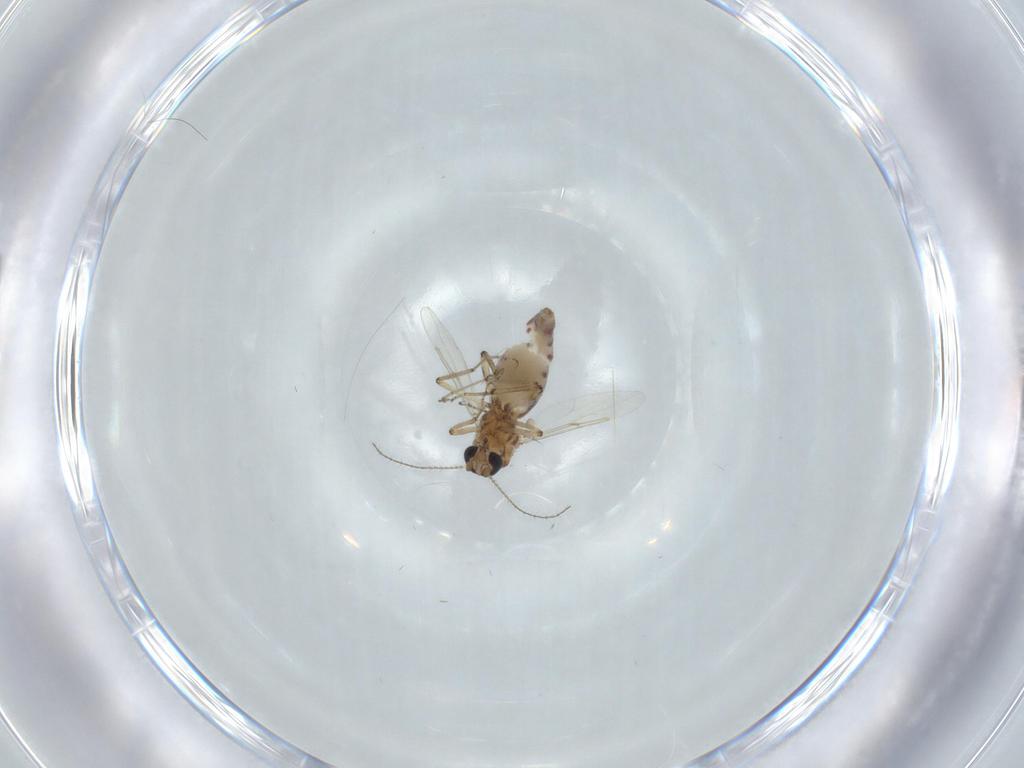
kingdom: Animalia
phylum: Arthropoda
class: Insecta
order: Diptera
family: Ceratopogonidae
